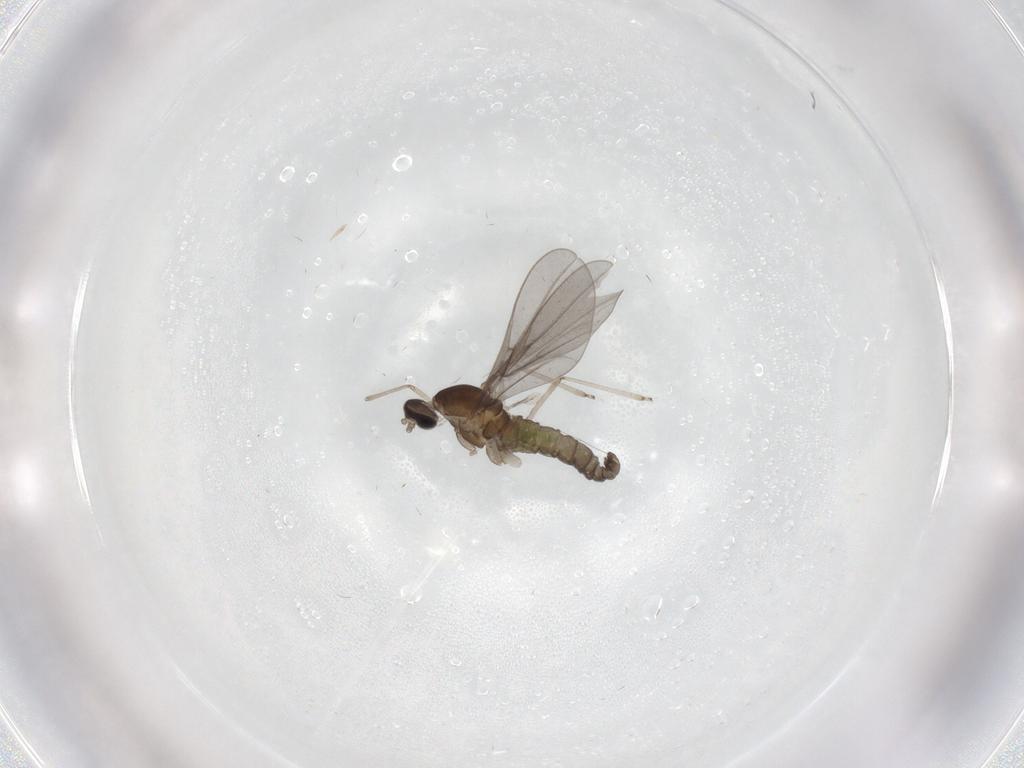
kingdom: Animalia
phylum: Arthropoda
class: Insecta
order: Diptera
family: Cecidomyiidae
